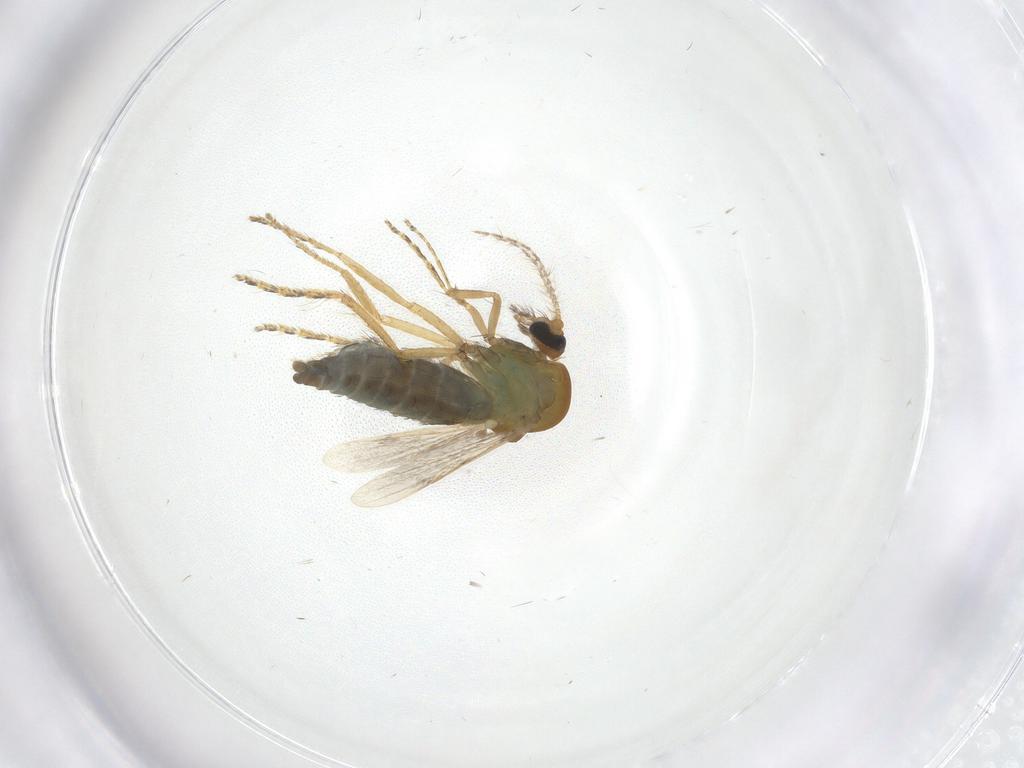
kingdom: Animalia
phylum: Arthropoda
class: Insecta
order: Diptera
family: Ceratopogonidae
